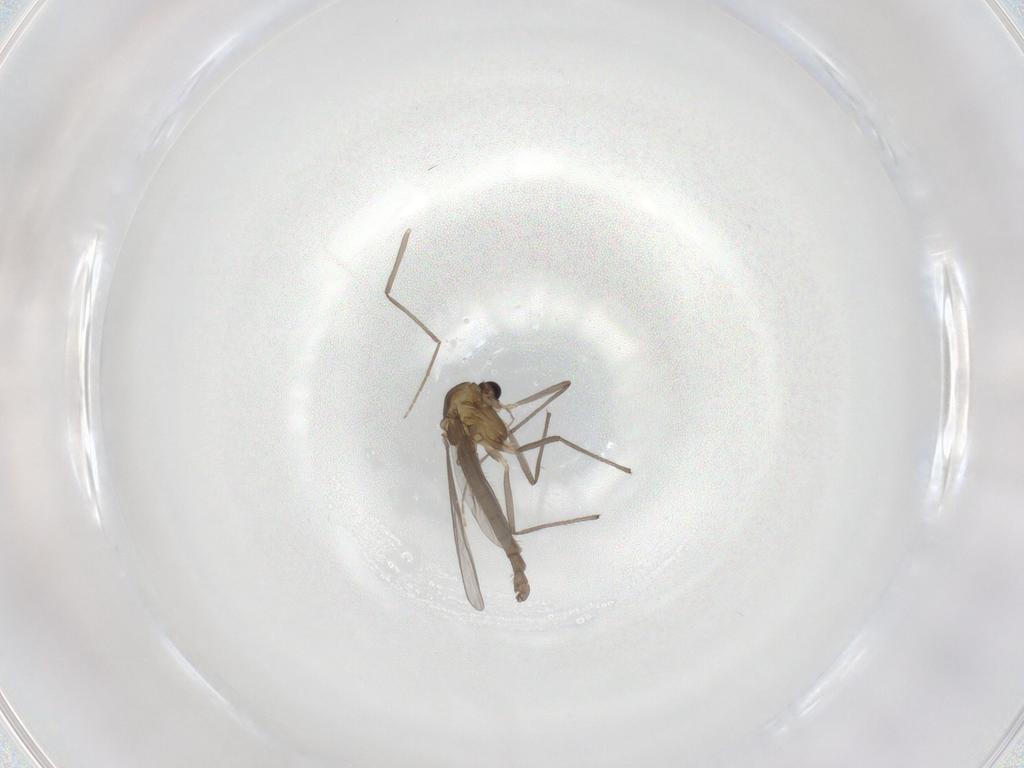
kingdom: Animalia
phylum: Arthropoda
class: Insecta
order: Diptera
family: Chironomidae
